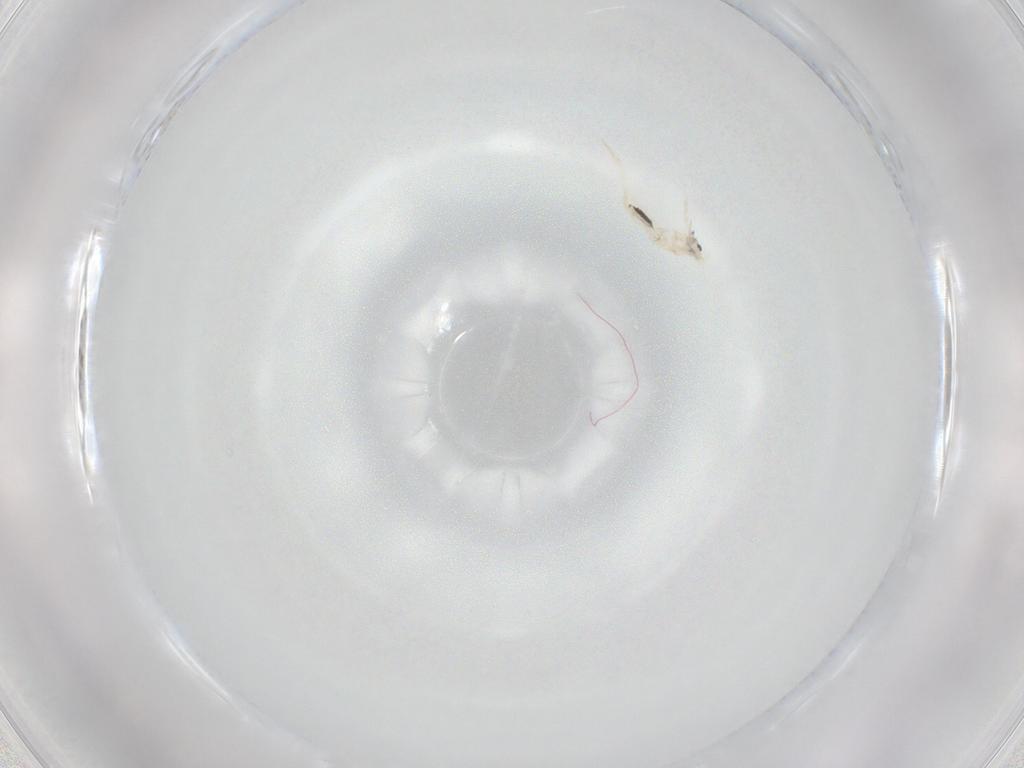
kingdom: Animalia
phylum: Arthropoda
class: Collembola
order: Entomobryomorpha
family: Entomobryidae
